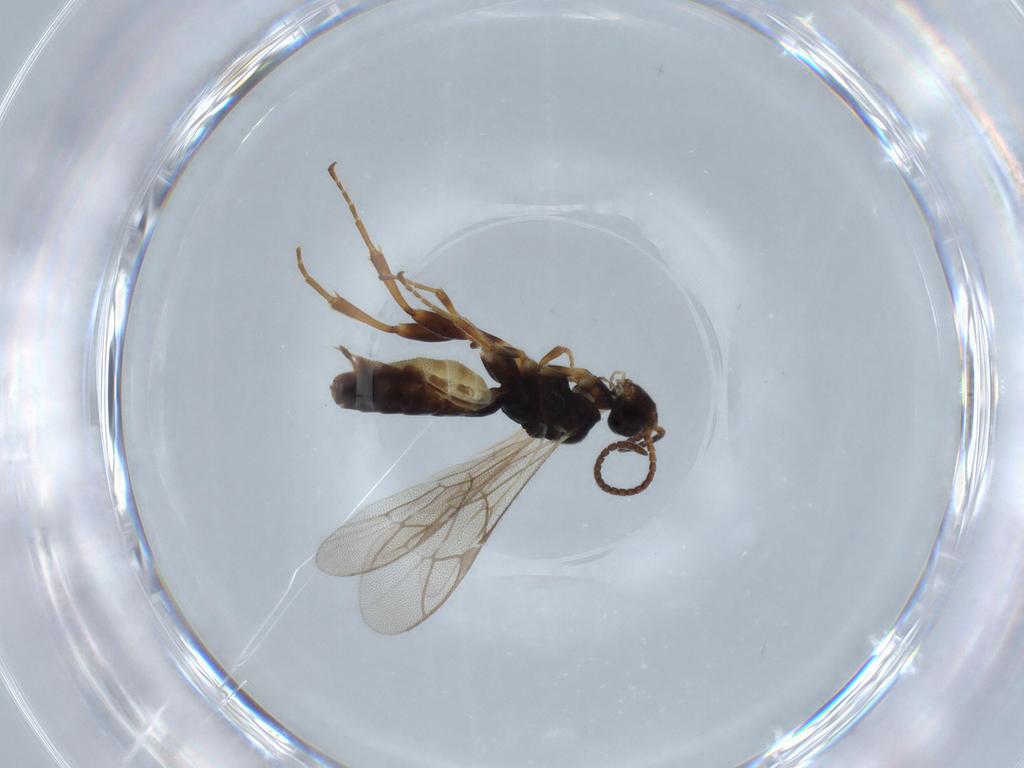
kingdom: Animalia
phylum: Arthropoda
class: Insecta
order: Hymenoptera
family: Ichneumonidae
